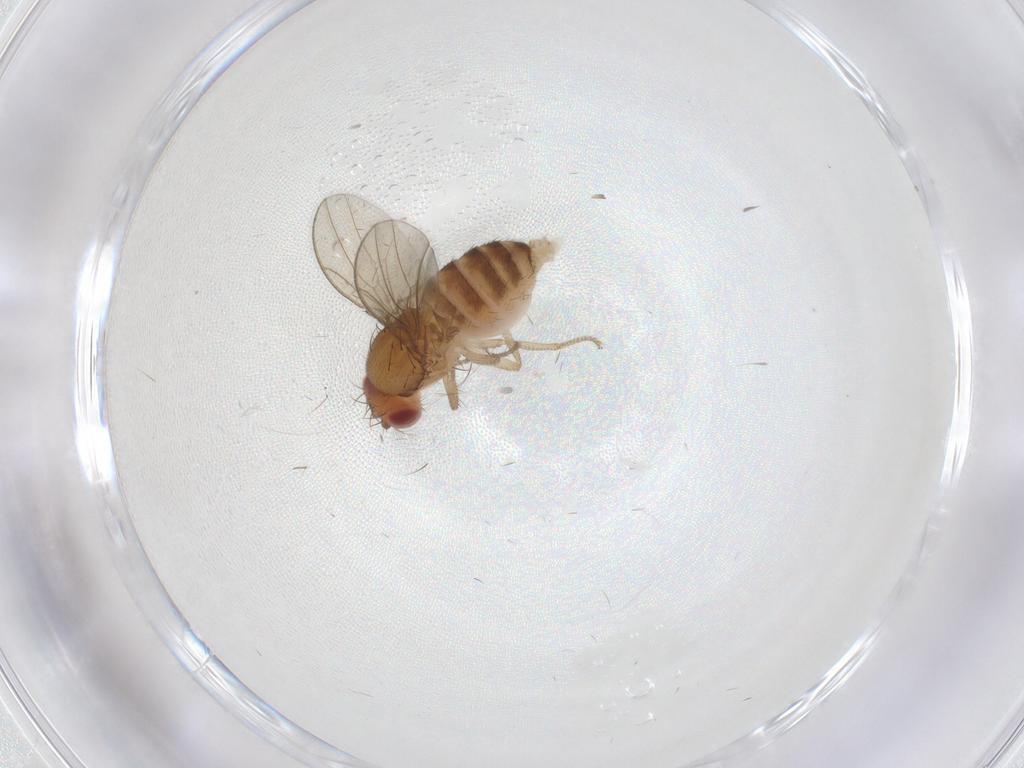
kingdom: Animalia
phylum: Arthropoda
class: Insecta
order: Diptera
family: Drosophilidae
